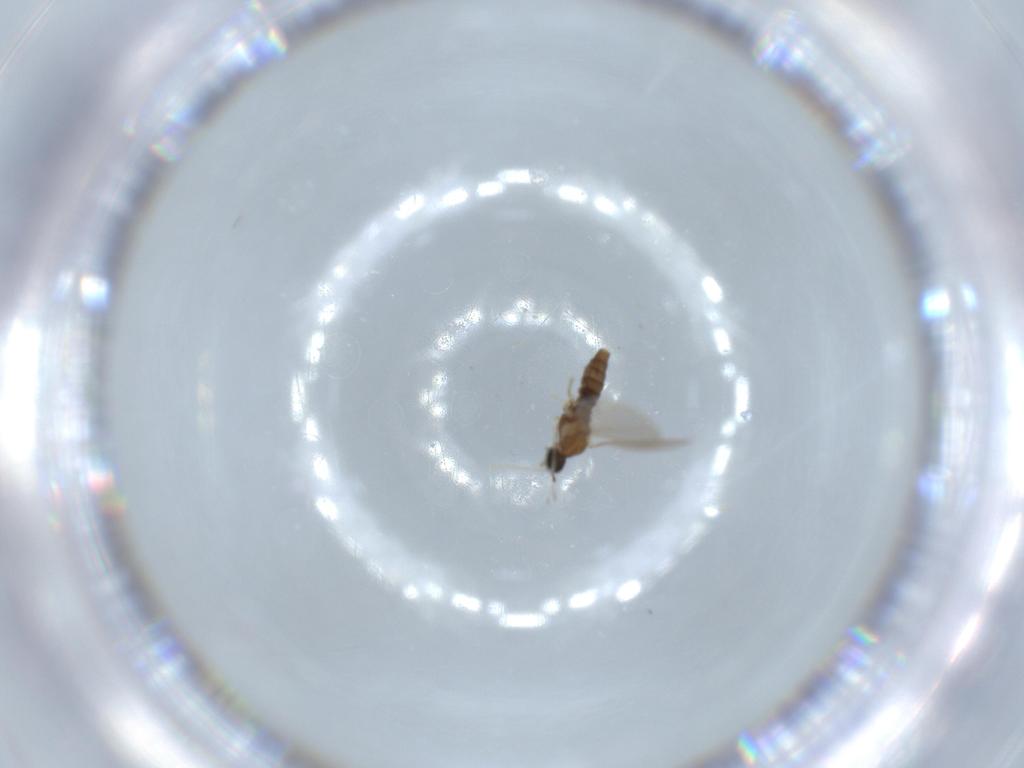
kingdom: Animalia
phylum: Arthropoda
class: Insecta
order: Diptera
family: Cecidomyiidae
